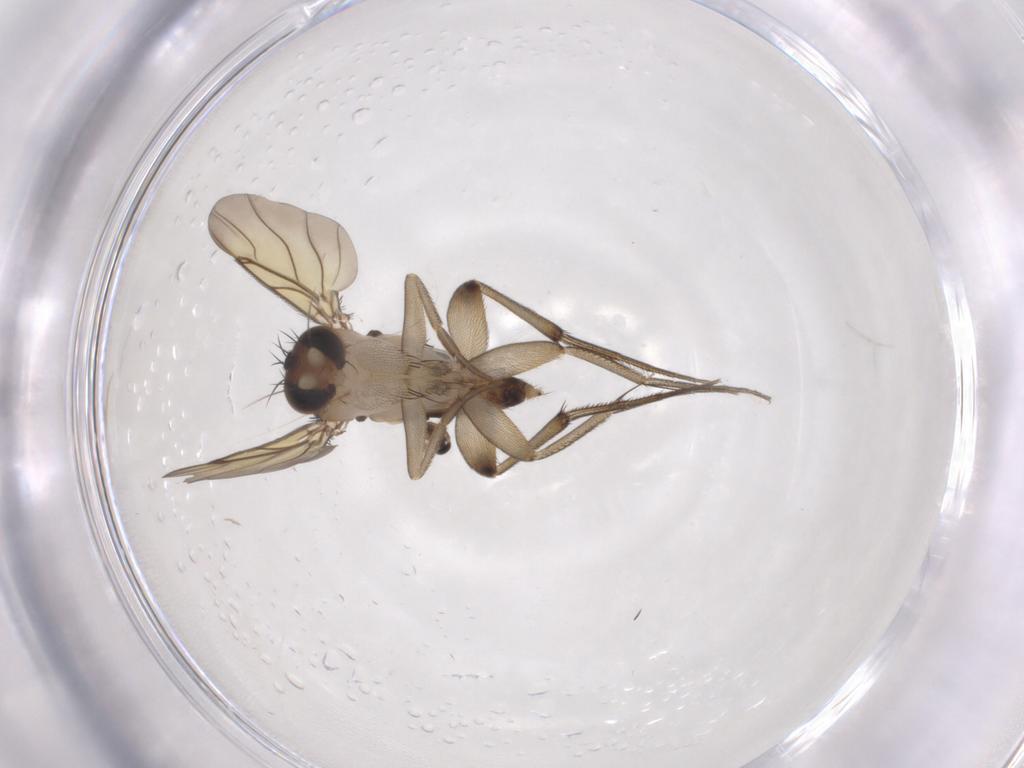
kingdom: Animalia
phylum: Arthropoda
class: Insecta
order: Diptera
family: Phoridae
